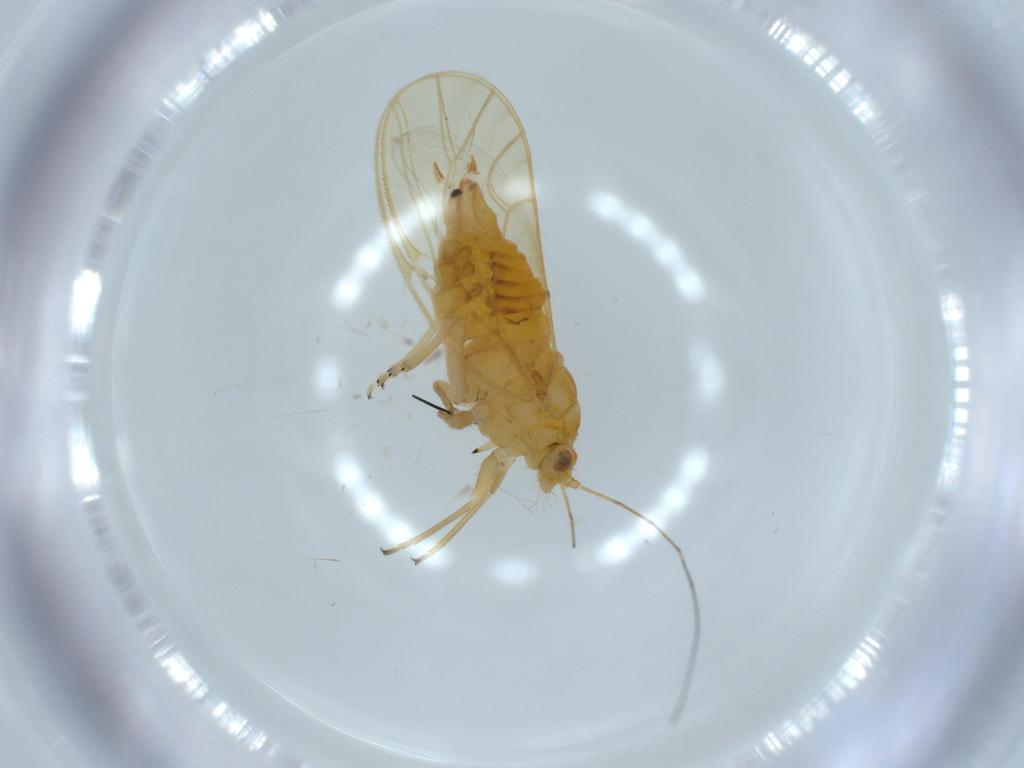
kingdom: Animalia
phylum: Arthropoda
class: Insecta
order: Hemiptera
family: Psyllidae
